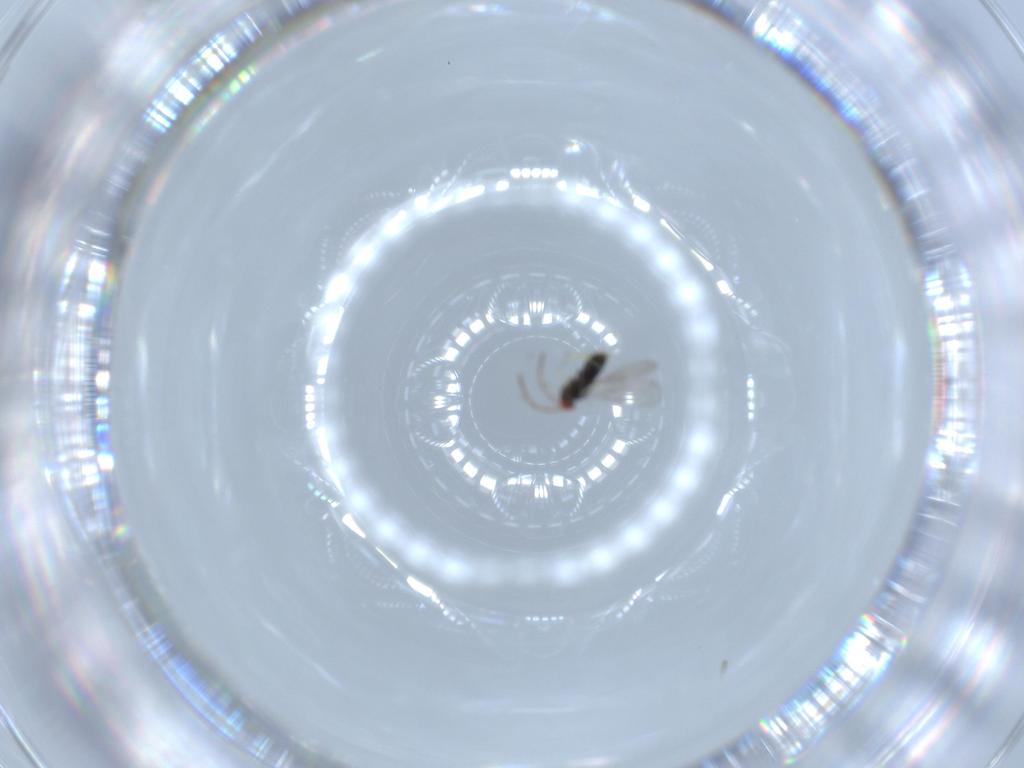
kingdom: Animalia
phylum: Arthropoda
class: Insecta
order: Hymenoptera
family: Azotidae
